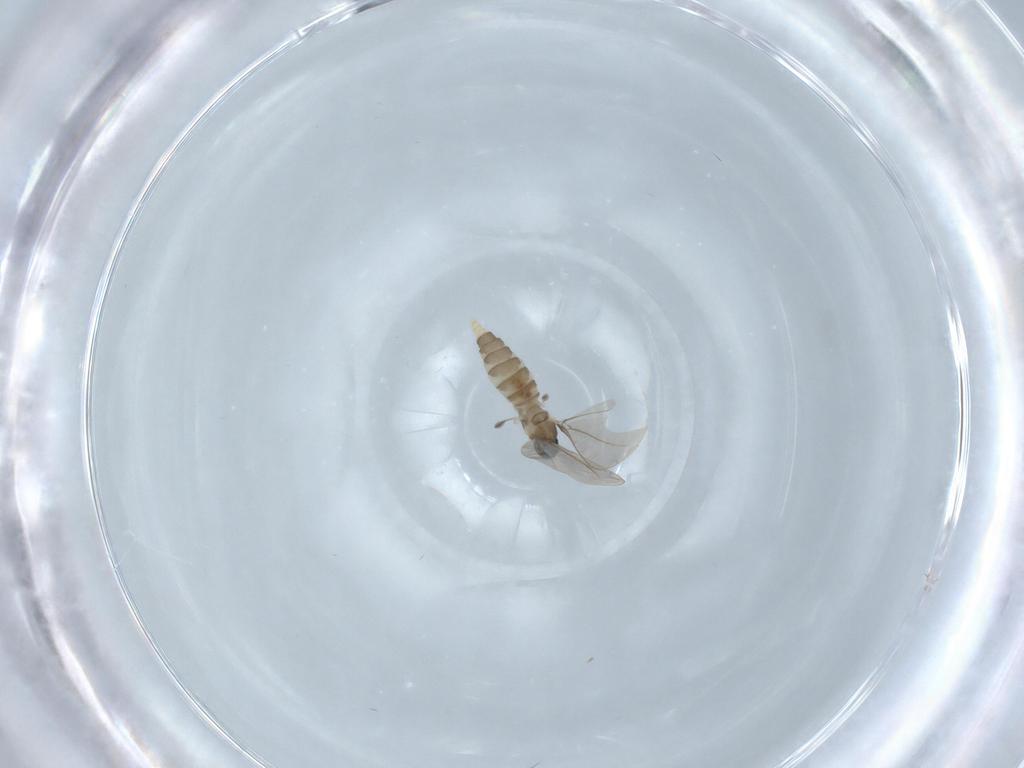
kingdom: Animalia
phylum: Arthropoda
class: Insecta
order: Diptera
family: Cecidomyiidae
